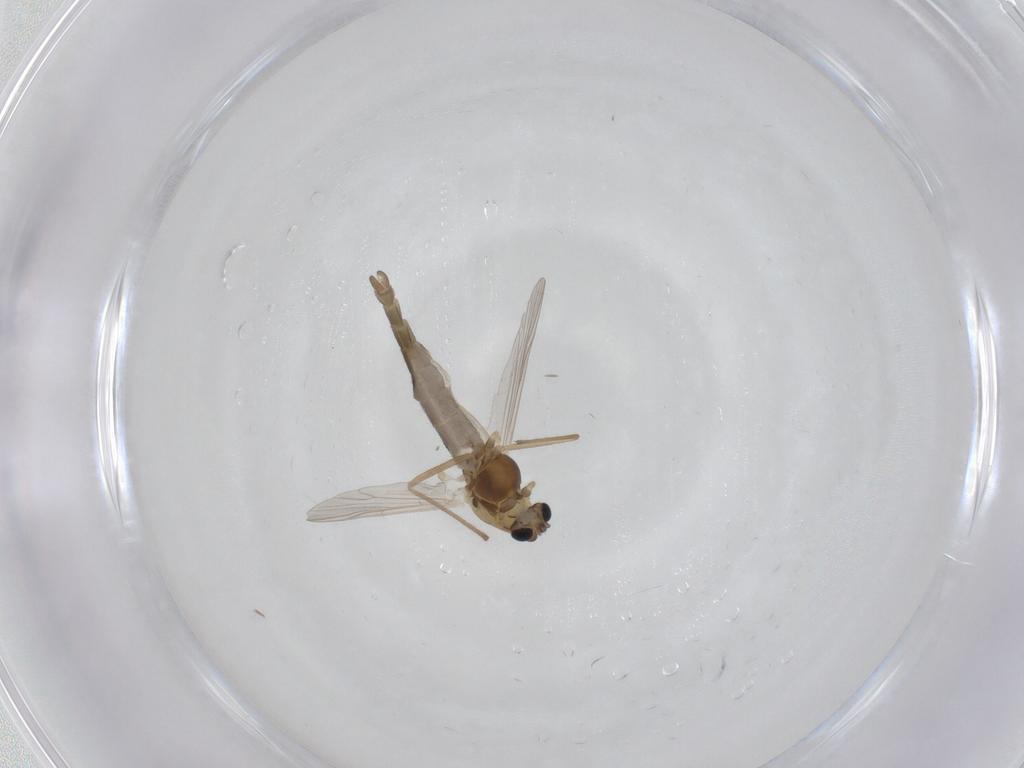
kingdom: Animalia
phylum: Arthropoda
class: Insecta
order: Diptera
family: Chironomidae
